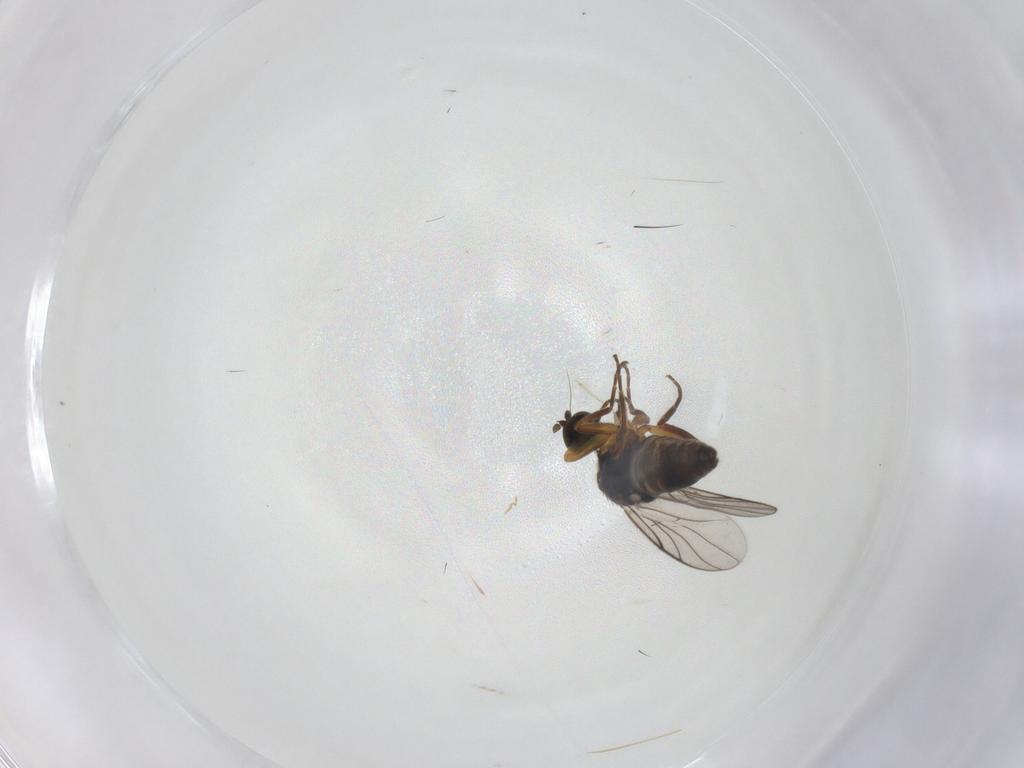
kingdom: Animalia
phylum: Arthropoda
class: Insecta
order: Diptera
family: Hybotidae
